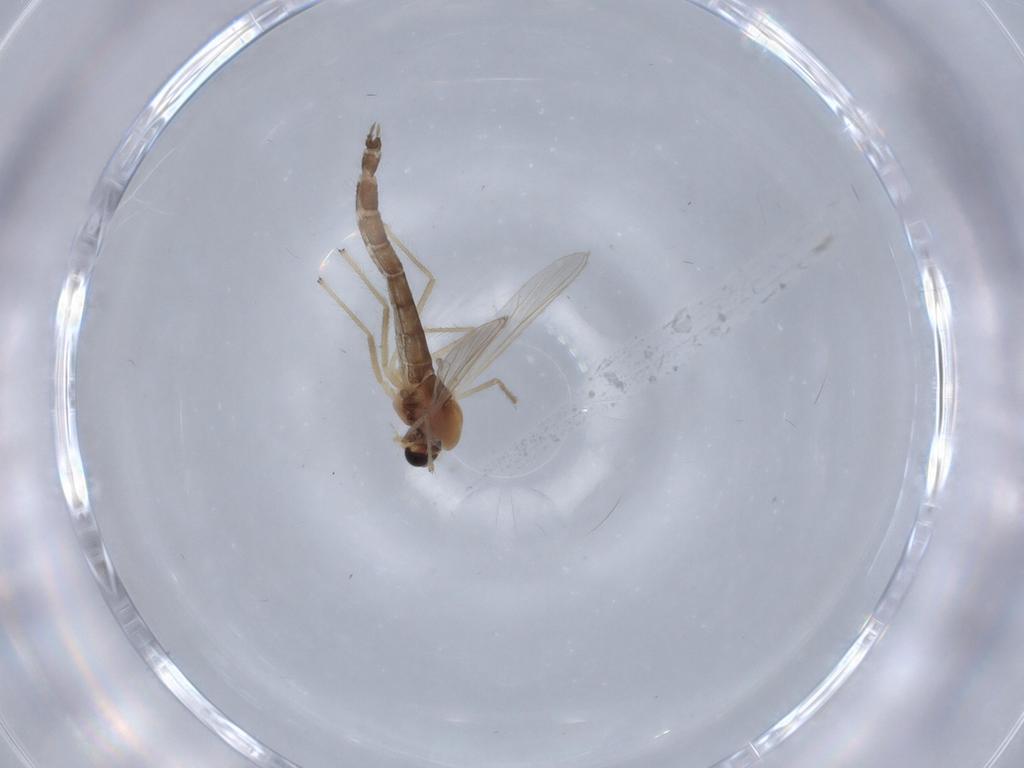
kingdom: Animalia
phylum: Arthropoda
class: Insecta
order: Diptera
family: Chironomidae
